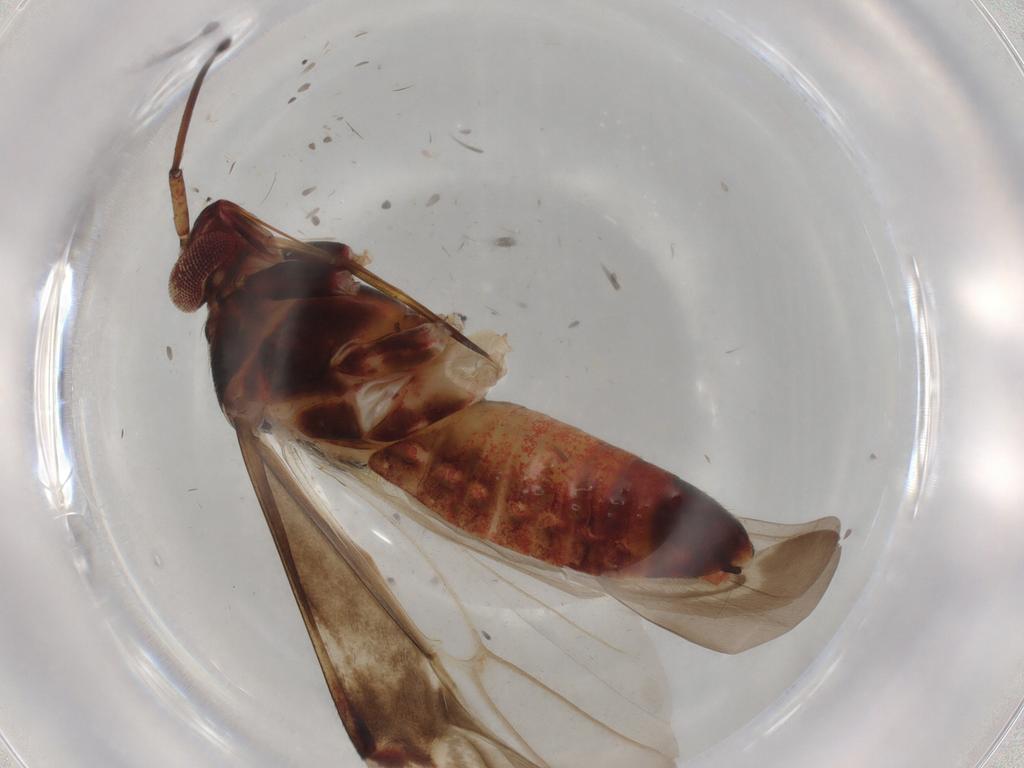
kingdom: Animalia
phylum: Arthropoda
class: Insecta
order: Hemiptera
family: Miridae
